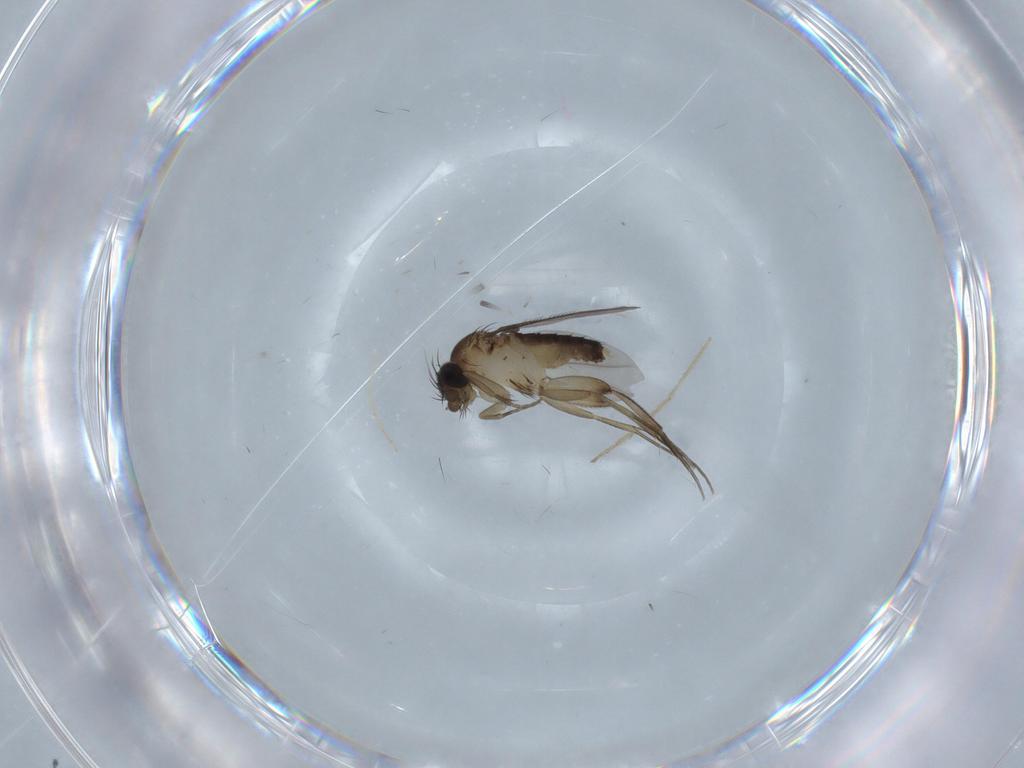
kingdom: Animalia
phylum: Arthropoda
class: Insecta
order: Diptera
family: Phoridae
